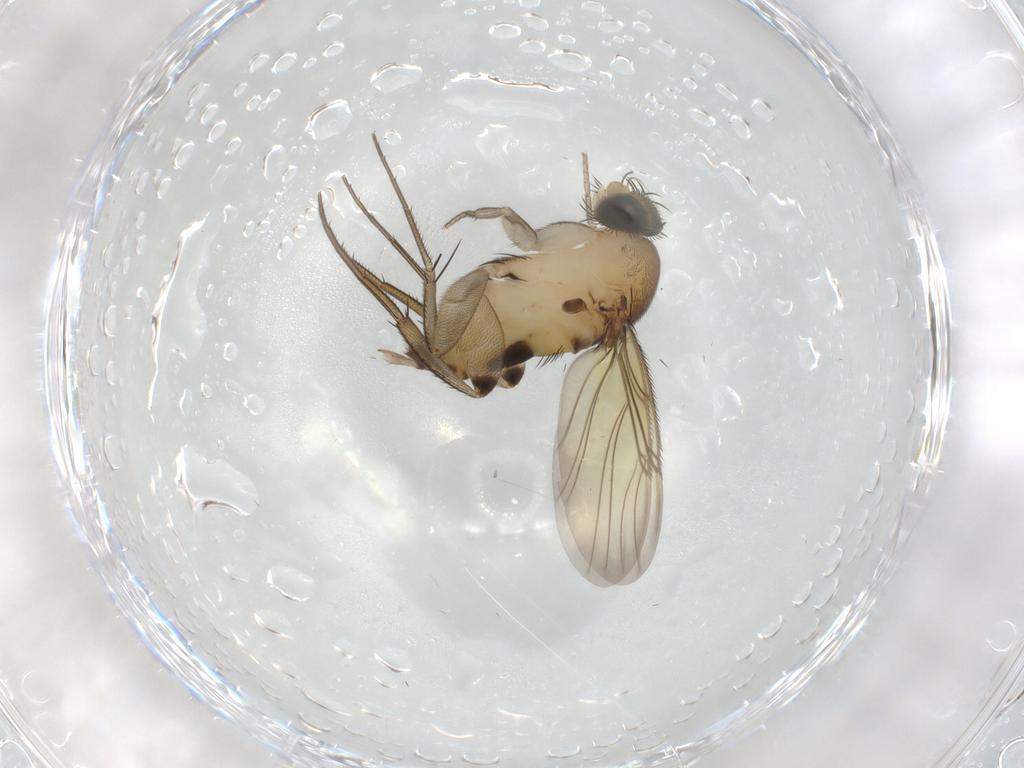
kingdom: Animalia
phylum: Arthropoda
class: Insecta
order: Diptera
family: Phoridae
